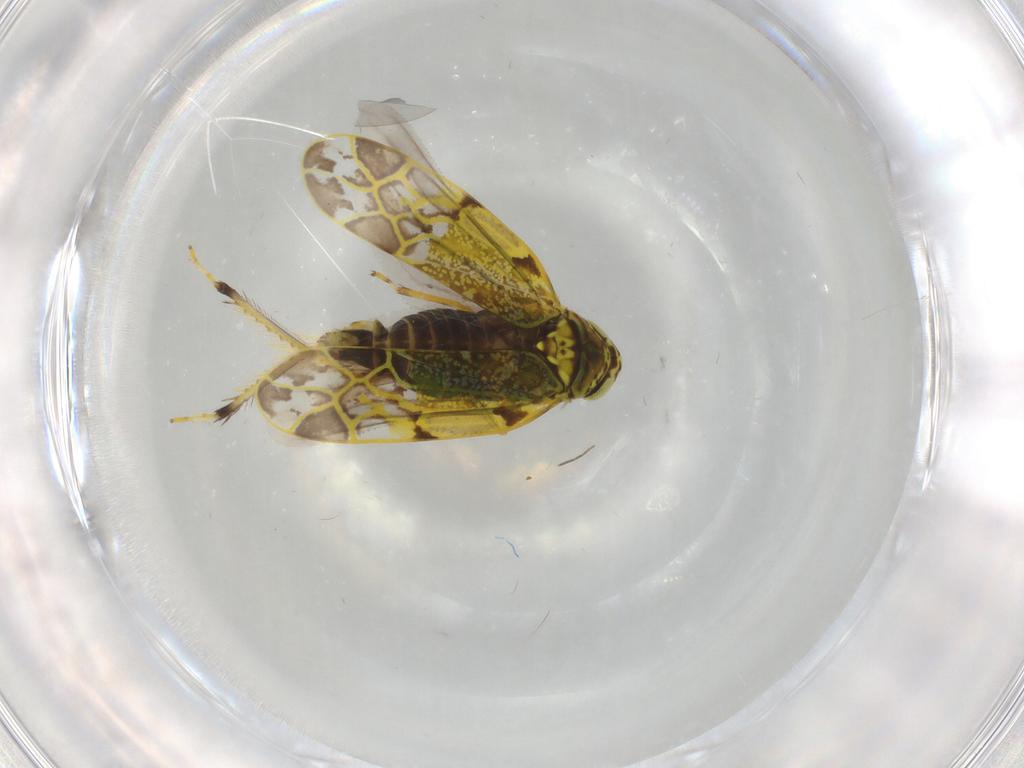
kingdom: Animalia
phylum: Arthropoda
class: Insecta
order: Hemiptera
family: Cicadellidae
